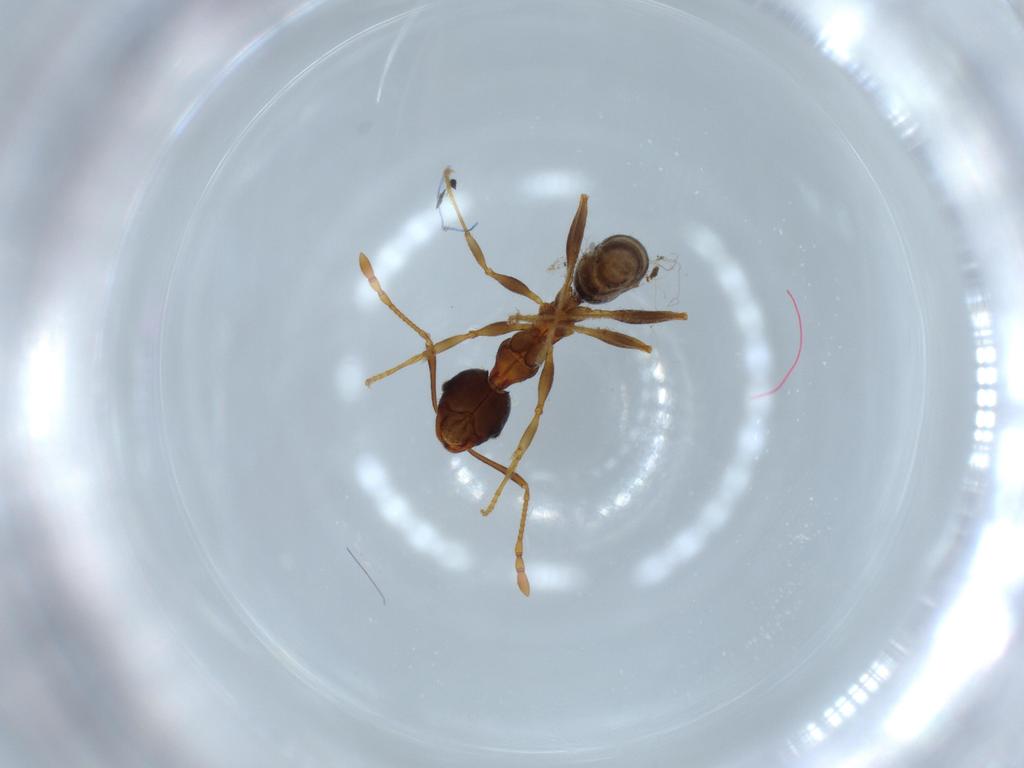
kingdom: Animalia
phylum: Arthropoda
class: Insecta
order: Hymenoptera
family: Formicidae
